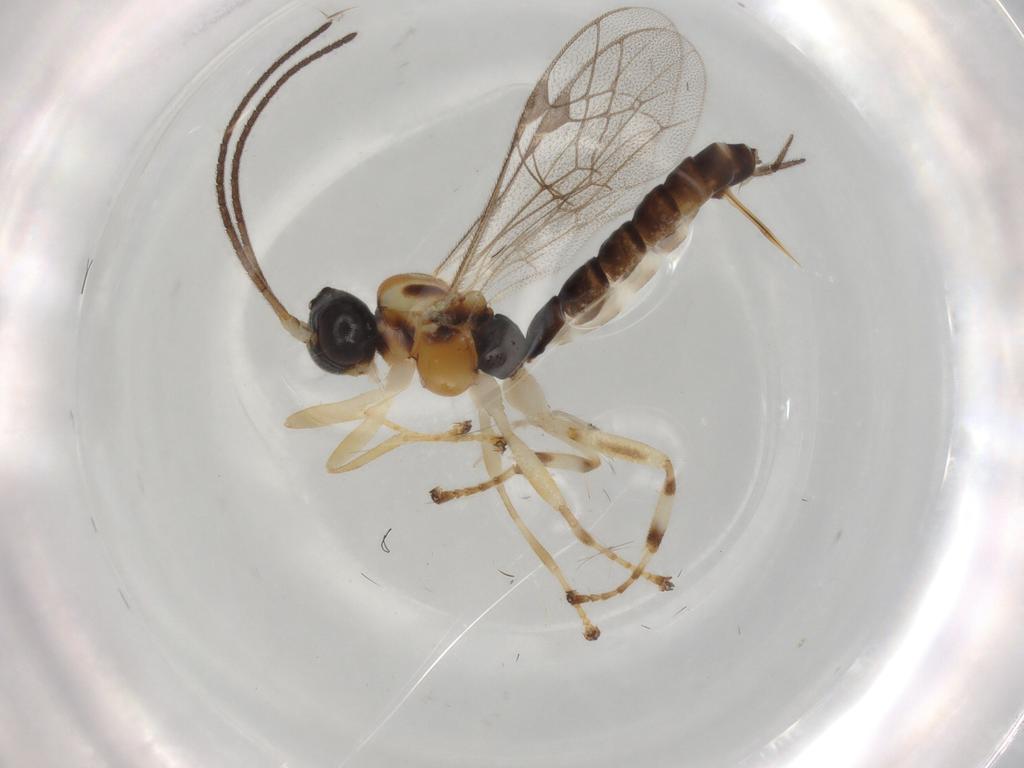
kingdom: Animalia
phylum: Arthropoda
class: Insecta
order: Hymenoptera
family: Ichneumonidae
